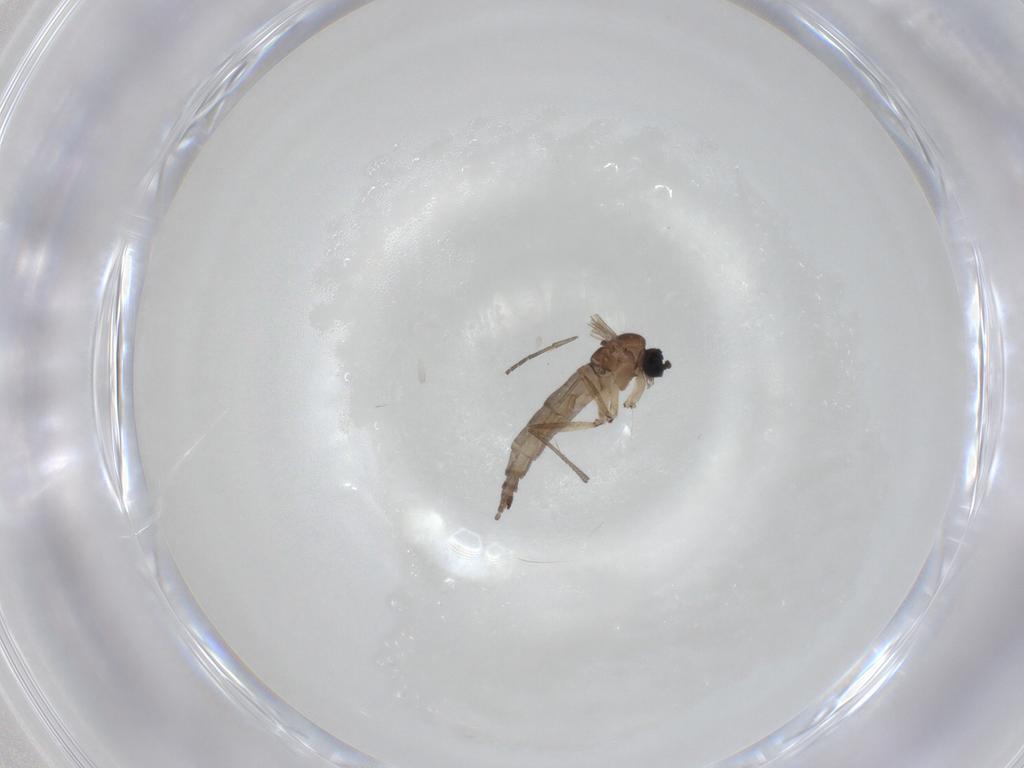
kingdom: Animalia
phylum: Arthropoda
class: Insecta
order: Diptera
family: Sciaridae
